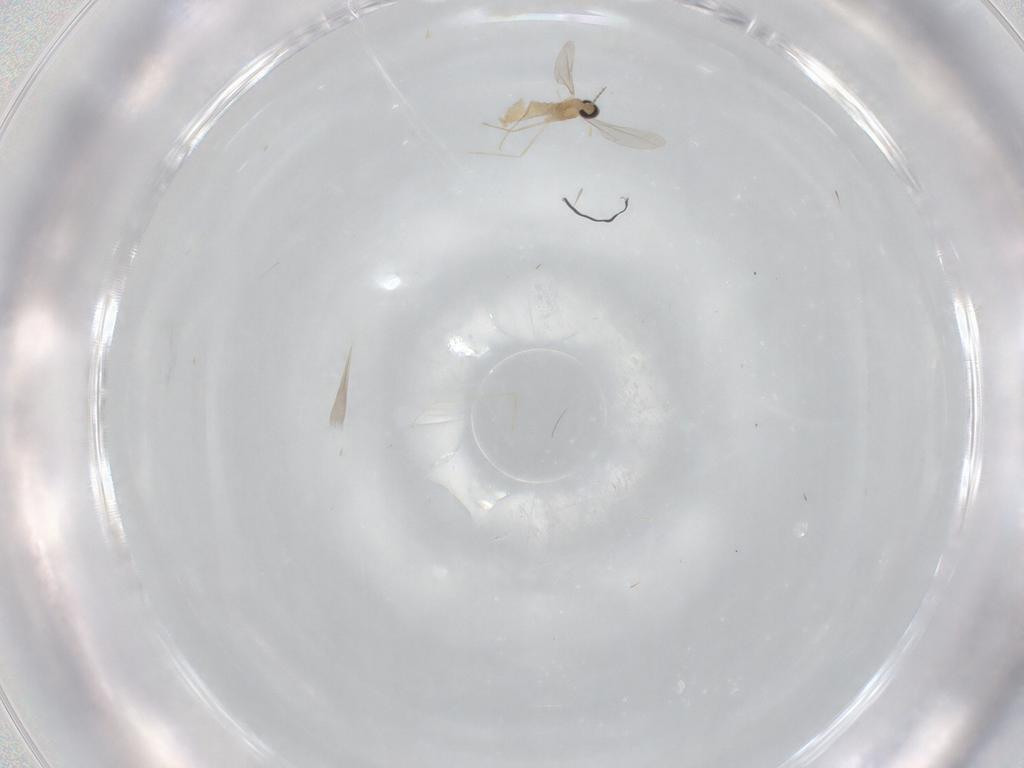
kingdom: Animalia
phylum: Arthropoda
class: Insecta
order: Diptera
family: Cecidomyiidae
